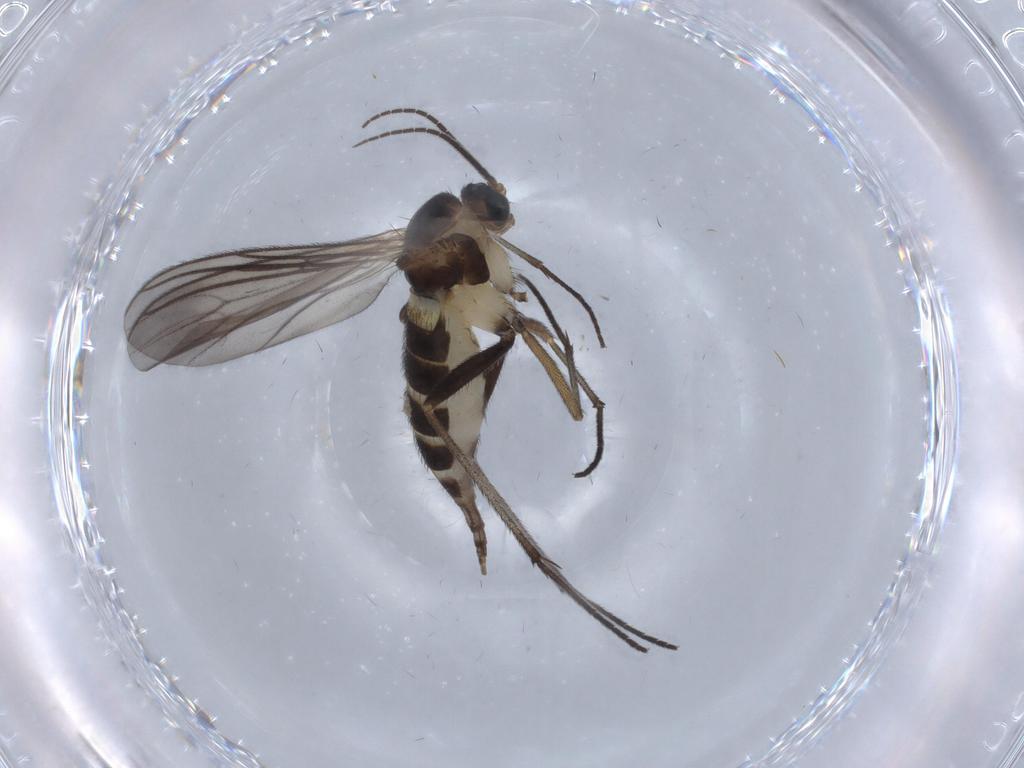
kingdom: Animalia
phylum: Arthropoda
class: Insecta
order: Diptera
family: Sciaridae
